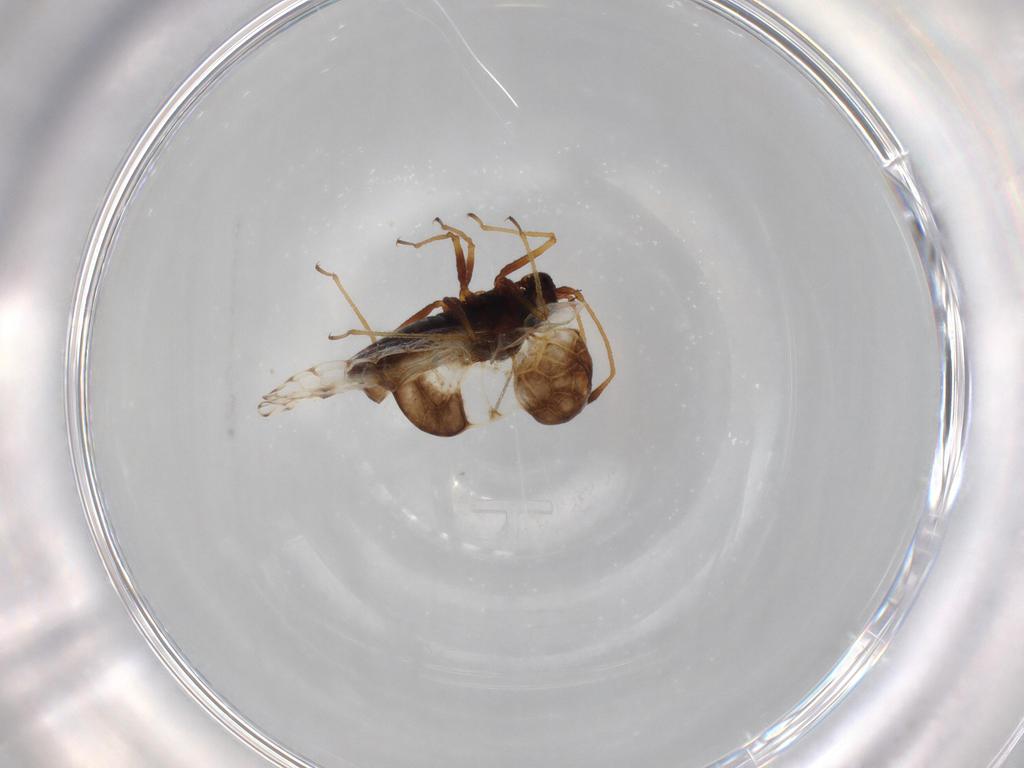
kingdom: Animalia
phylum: Arthropoda
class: Insecta
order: Hemiptera
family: Tingidae
